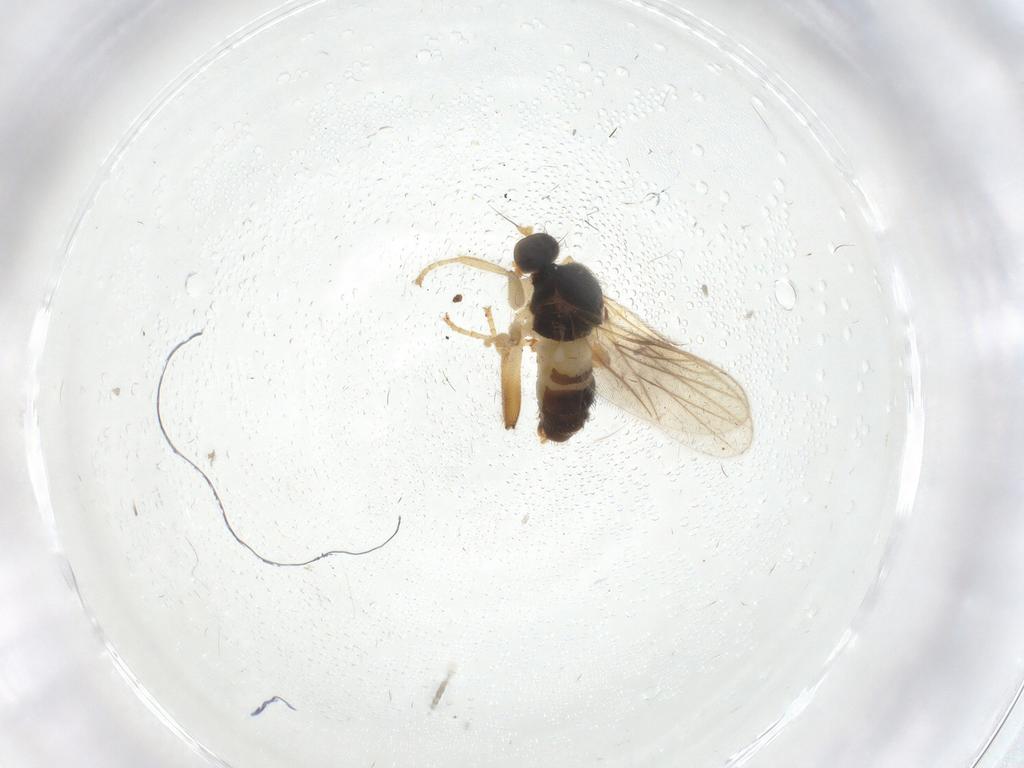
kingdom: Animalia
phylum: Arthropoda
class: Insecta
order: Diptera
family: Hybotidae
